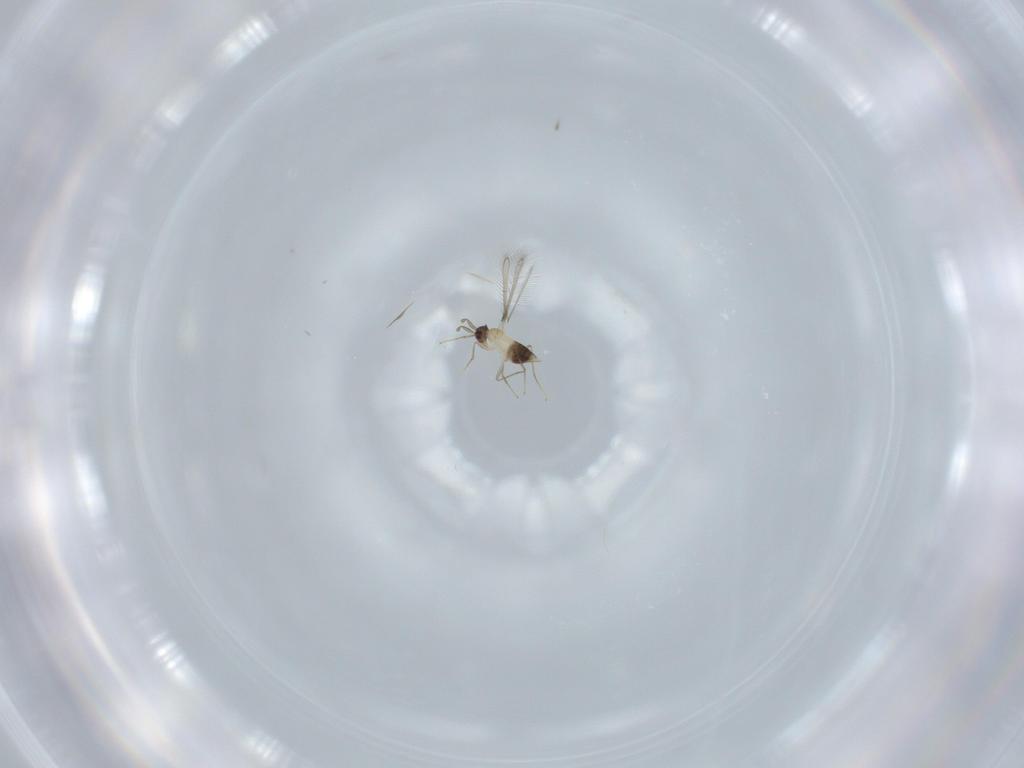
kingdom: Animalia
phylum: Arthropoda
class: Insecta
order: Hymenoptera
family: Mymaridae
